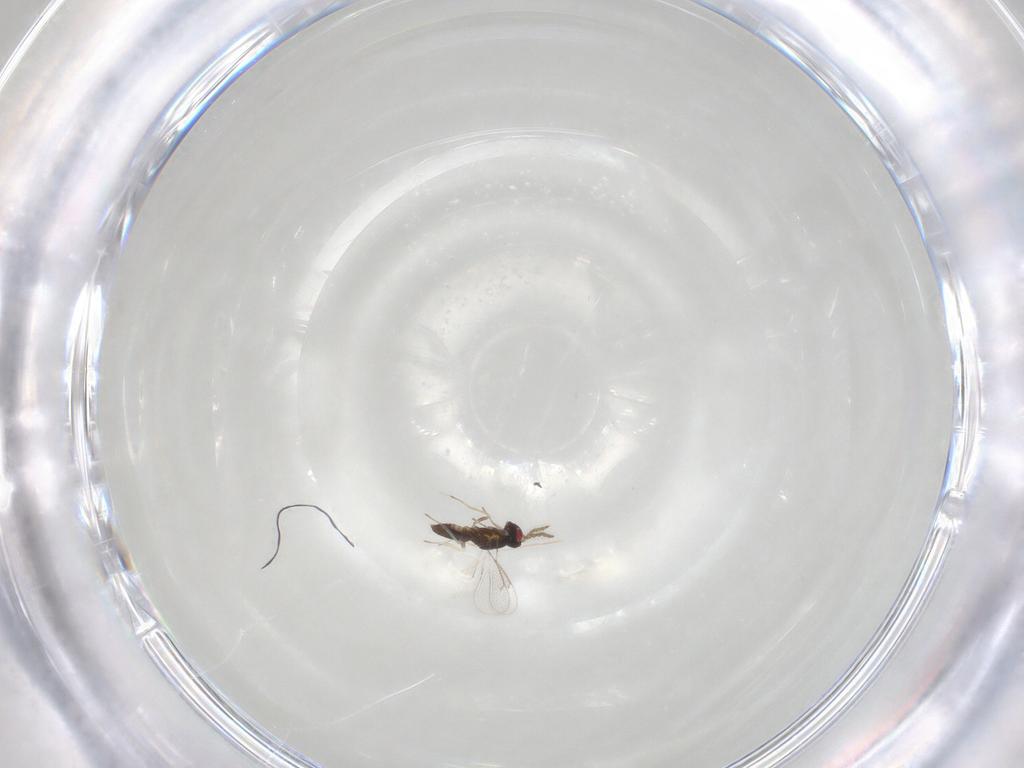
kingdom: Animalia
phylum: Arthropoda
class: Insecta
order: Hymenoptera
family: Eulophidae
